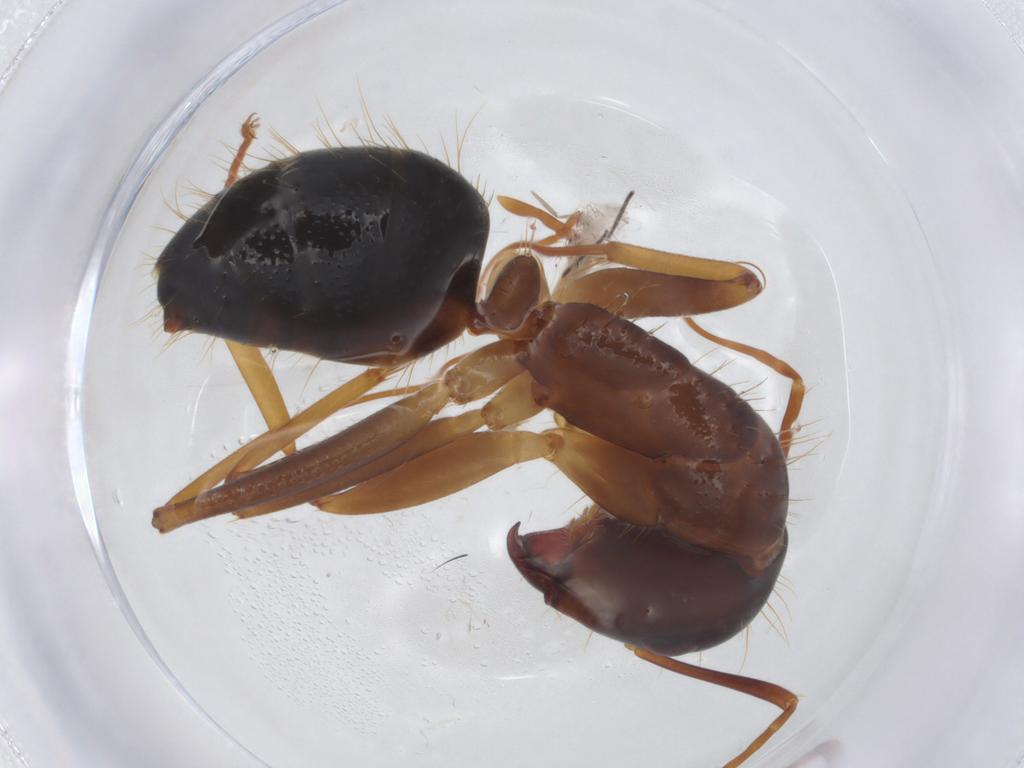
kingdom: Animalia
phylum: Arthropoda
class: Insecta
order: Hymenoptera
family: Formicidae
